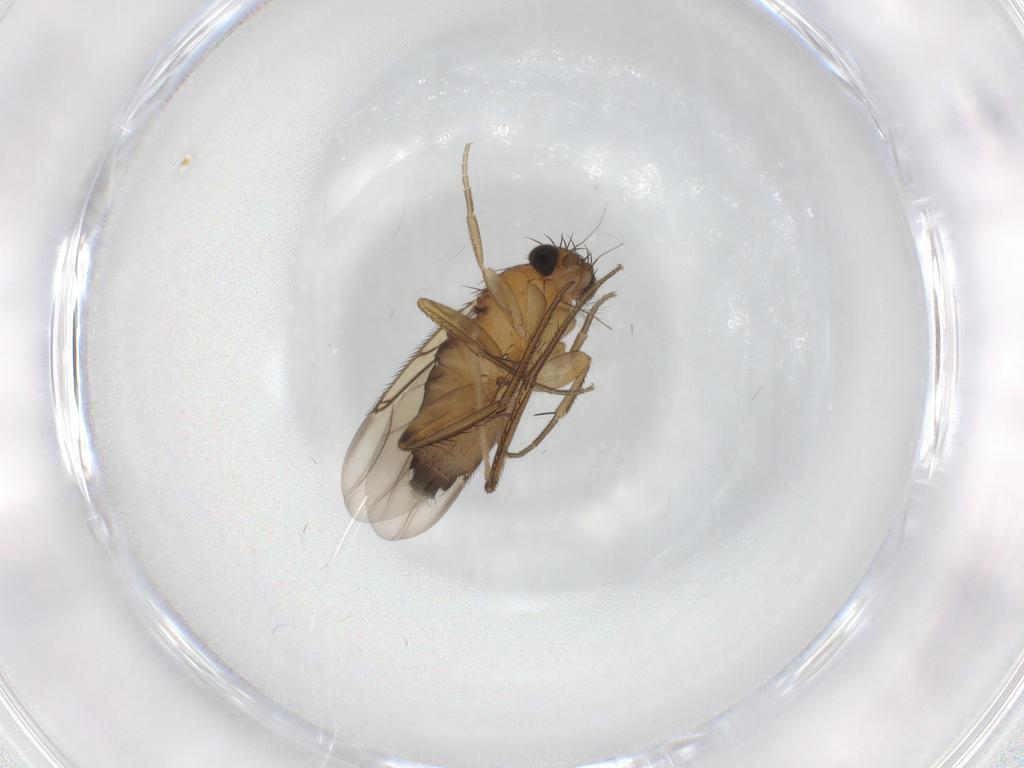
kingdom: Animalia
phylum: Arthropoda
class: Insecta
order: Diptera
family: Phoridae
